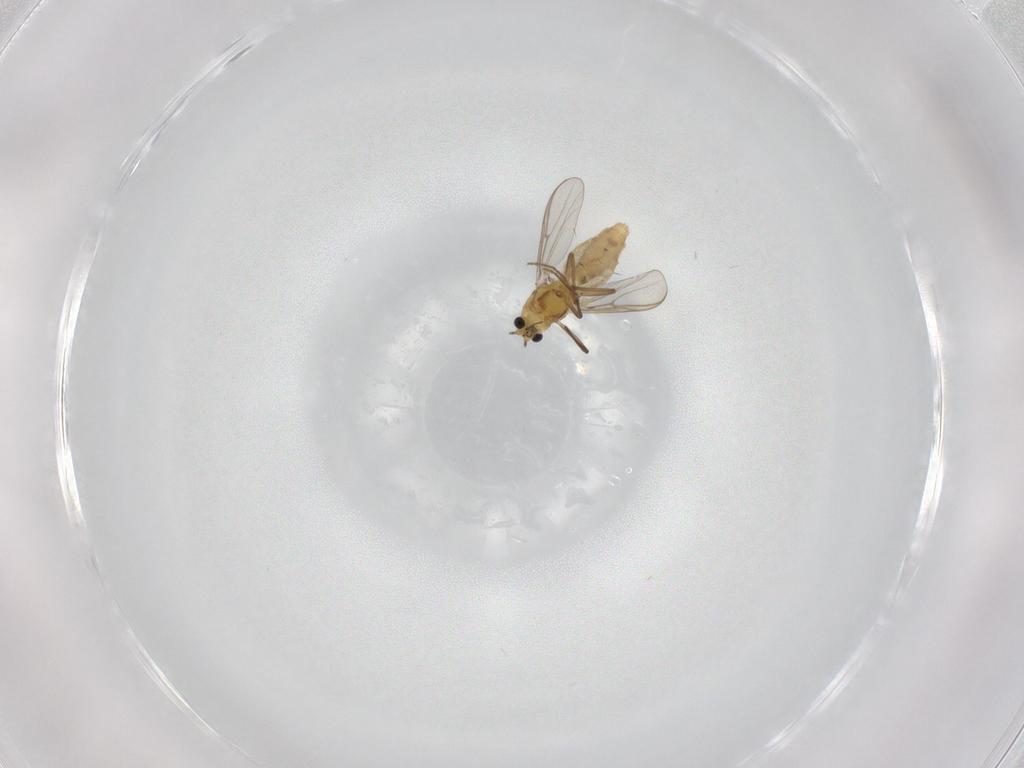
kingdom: Animalia
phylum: Arthropoda
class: Insecta
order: Diptera
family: Chironomidae
